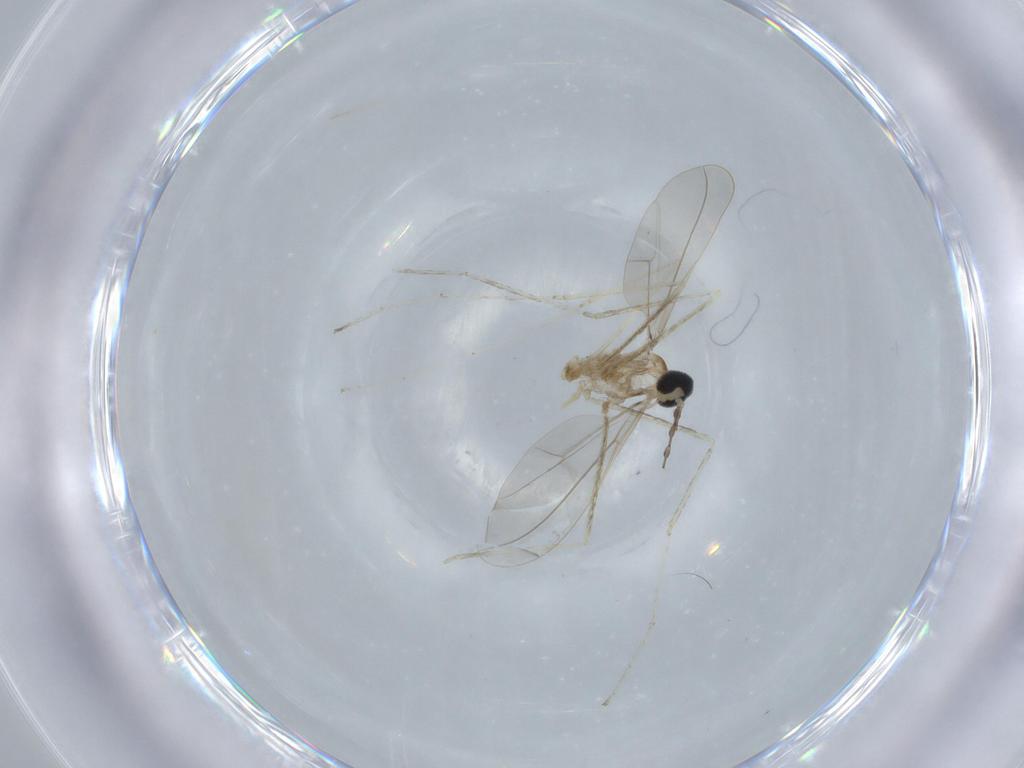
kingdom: Animalia
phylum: Arthropoda
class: Insecta
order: Diptera
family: Cecidomyiidae
